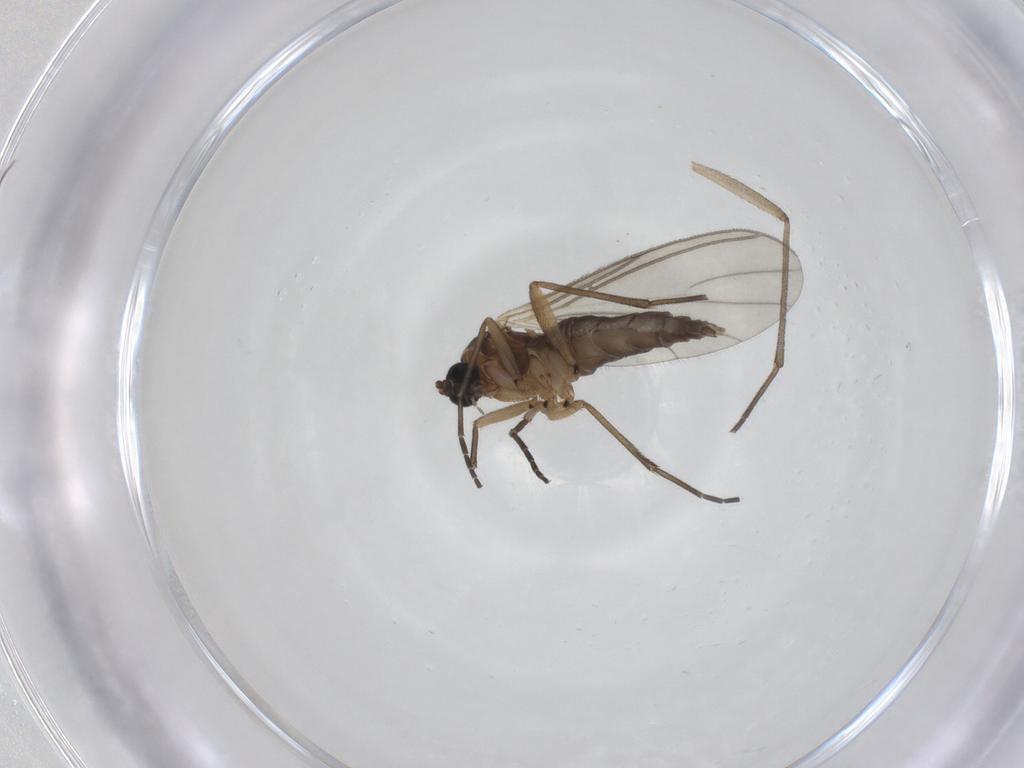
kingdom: Animalia
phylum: Arthropoda
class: Insecta
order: Diptera
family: Sciaridae
